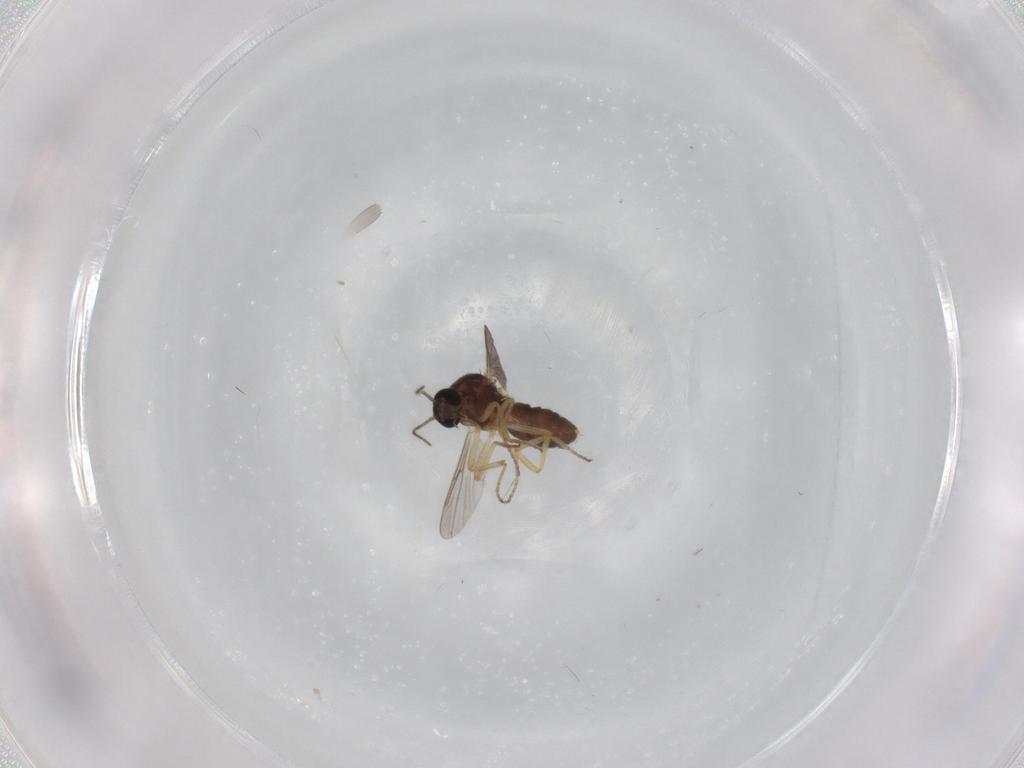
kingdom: Animalia
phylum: Arthropoda
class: Insecta
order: Diptera
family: Ceratopogonidae
